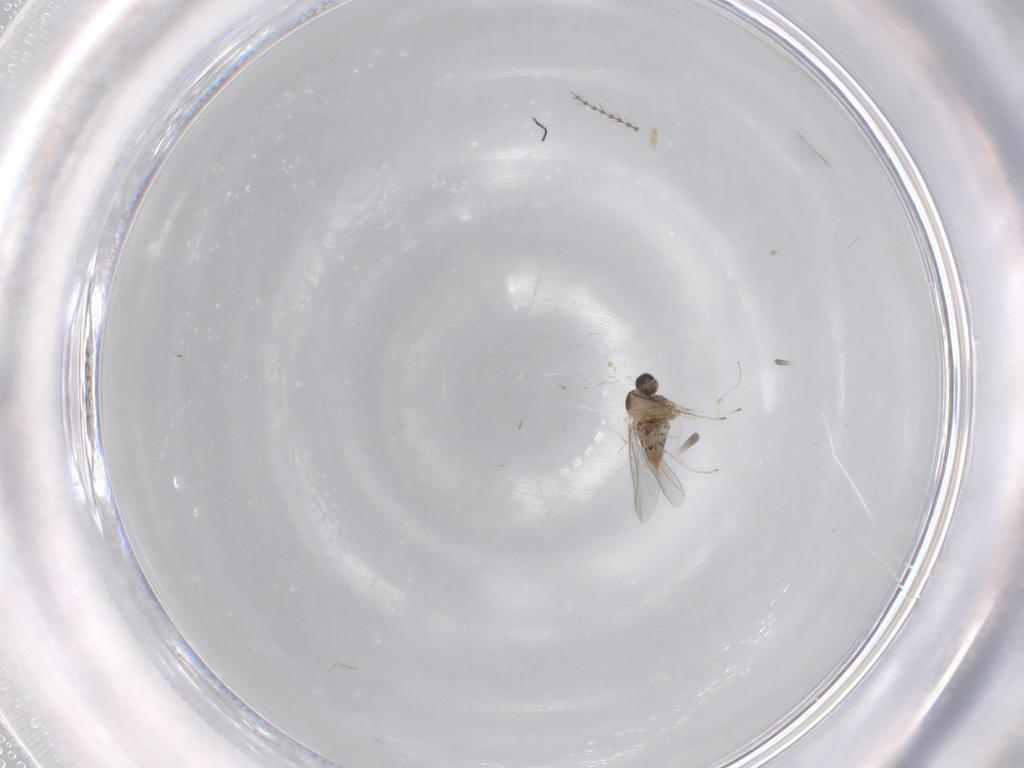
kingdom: Animalia
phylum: Arthropoda
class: Insecta
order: Diptera
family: Cecidomyiidae
